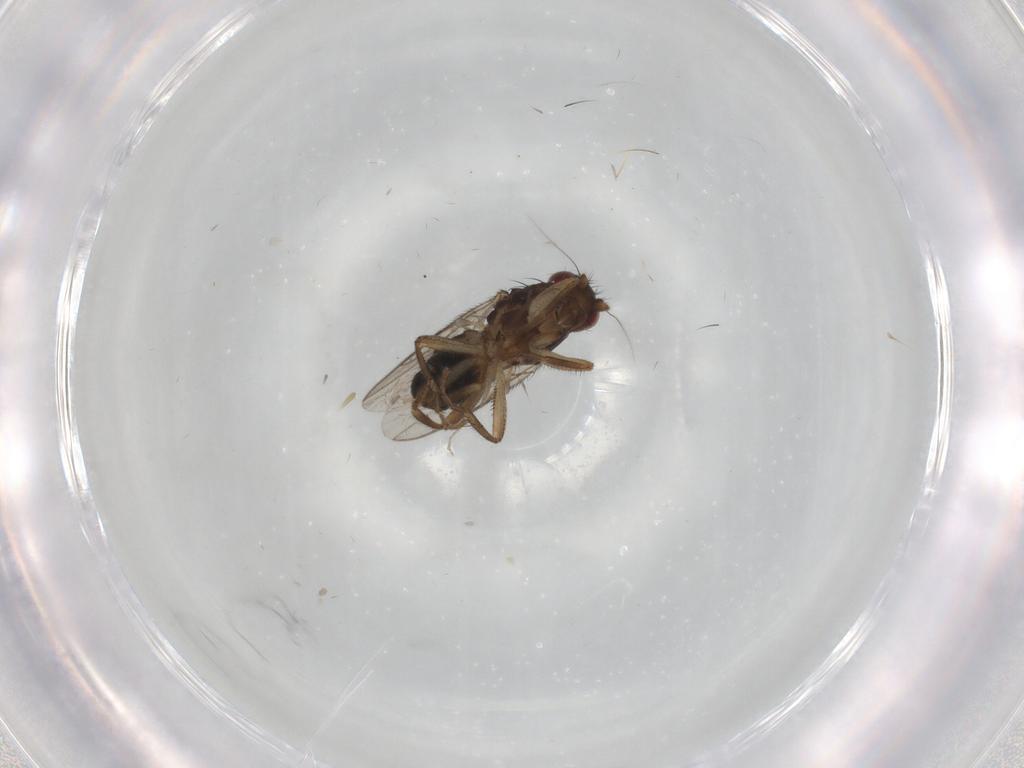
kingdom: Animalia
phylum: Arthropoda
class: Insecta
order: Diptera
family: Sphaeroceridae
